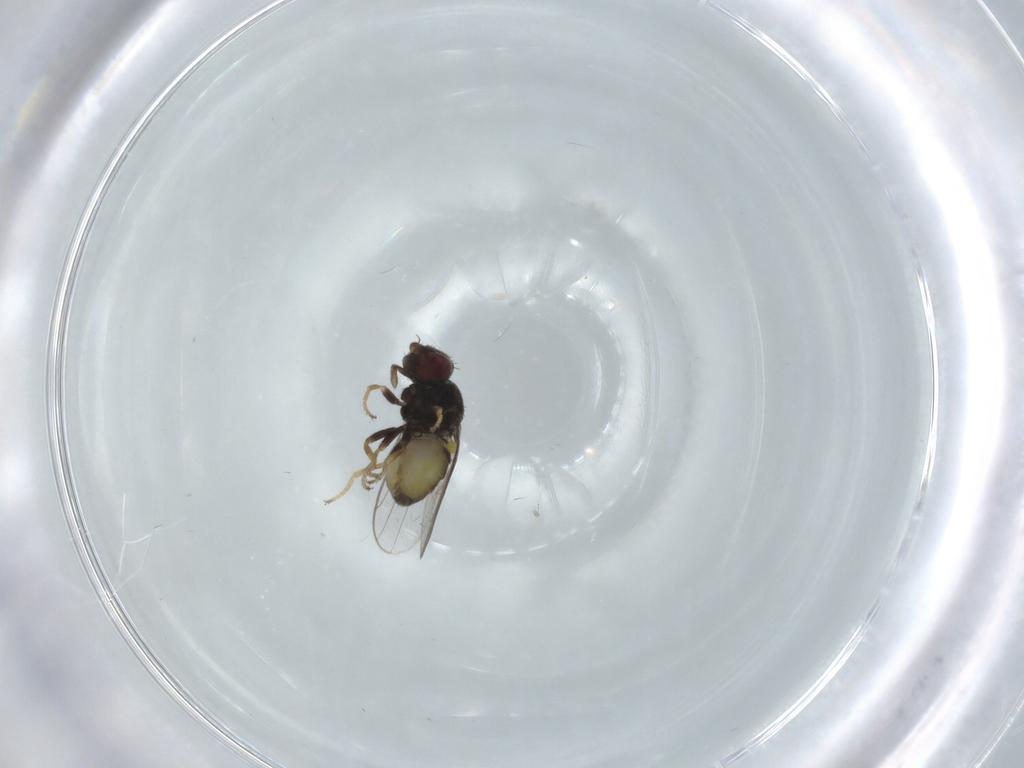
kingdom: Animalia
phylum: Arthropoda
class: Insecta
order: Diptera
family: Chloropidae
